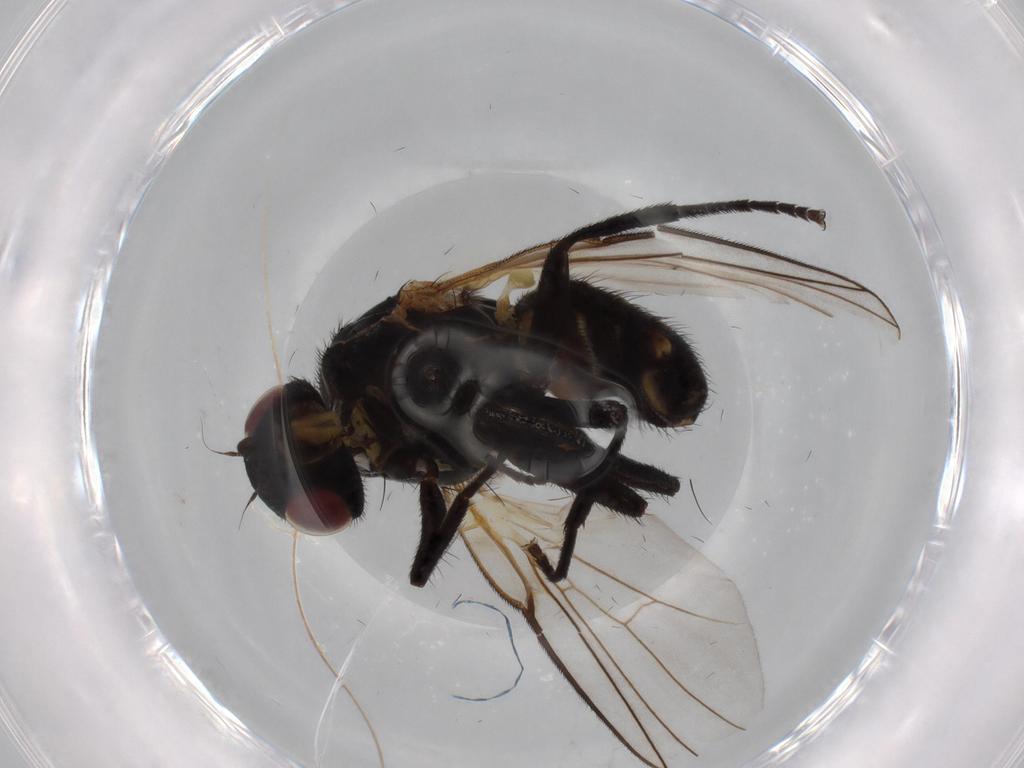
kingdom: Animalia
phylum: Arthropoda
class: Insecta
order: Diptera
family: Agromyzidae
